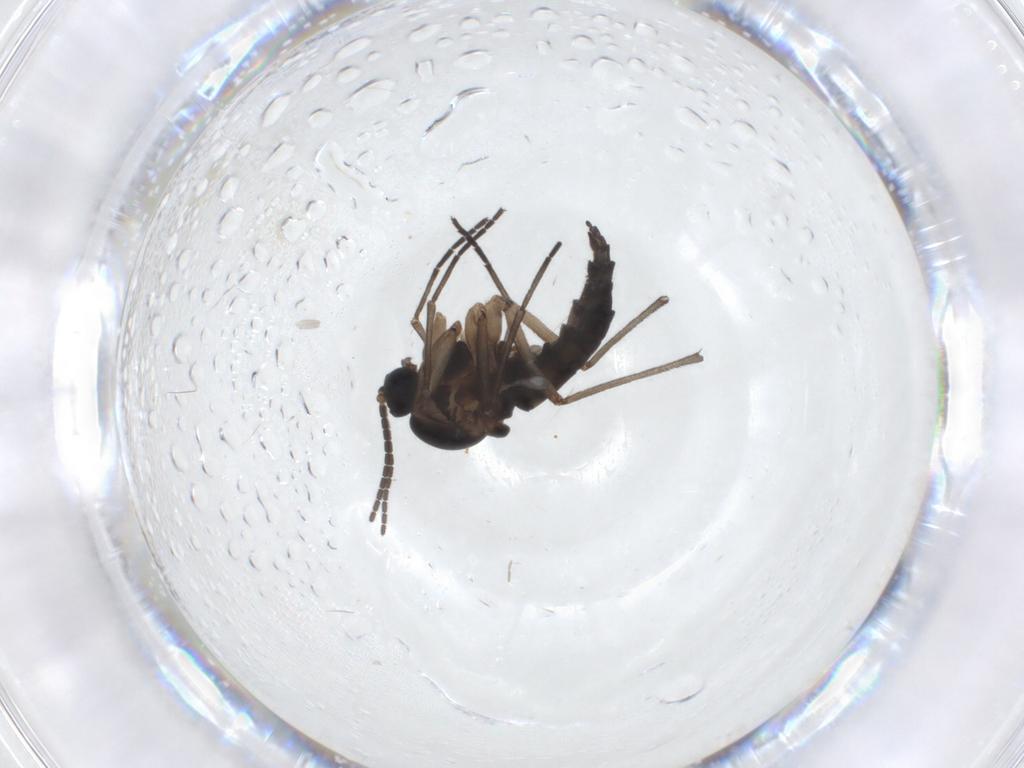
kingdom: Animalia
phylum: Arthropoda
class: Insecta
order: Diptera
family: Sciaridae
